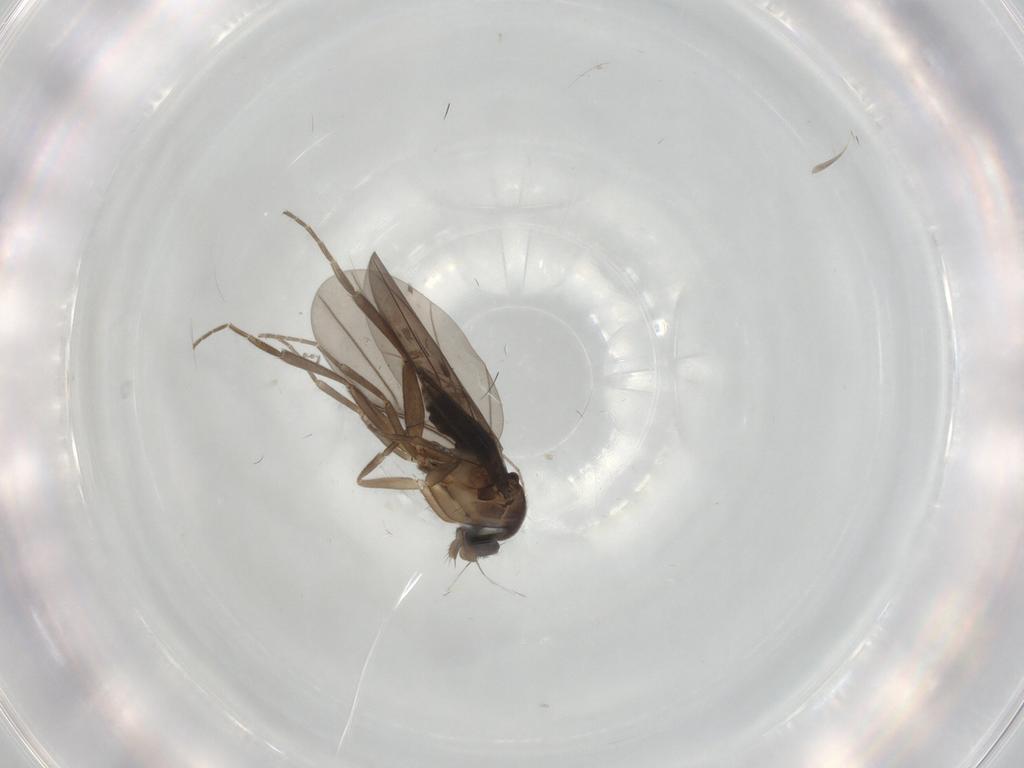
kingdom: Animalia
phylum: Arthropoda
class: Insecta
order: Diptera
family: Phoridae
